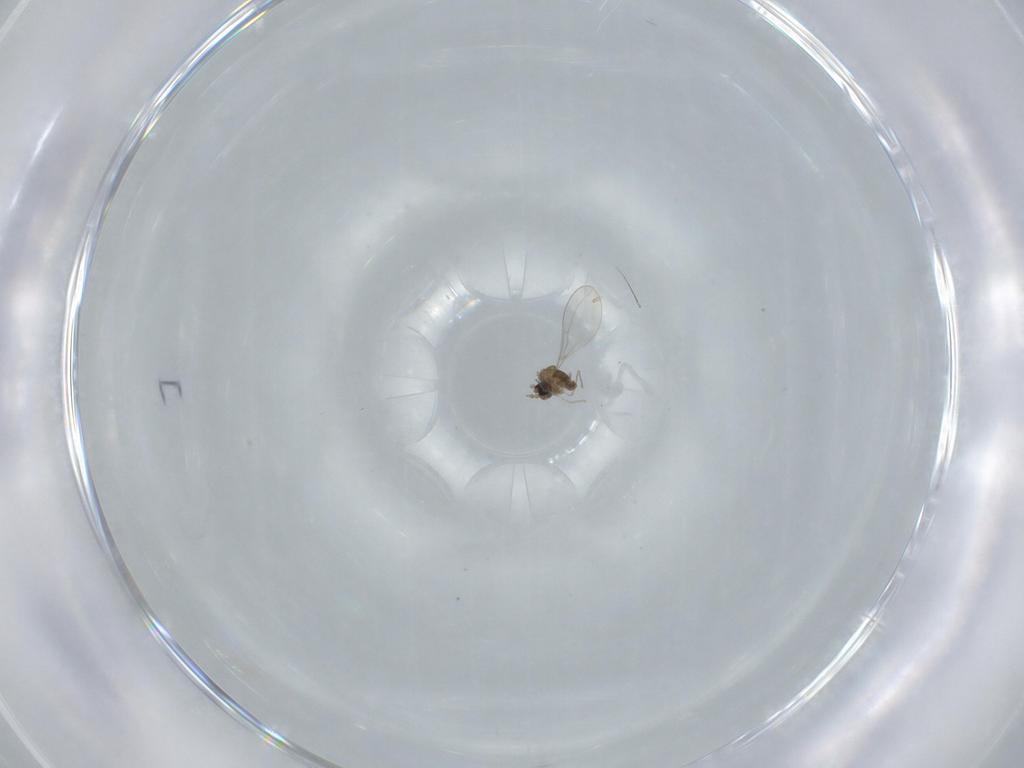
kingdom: Animalia
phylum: Arthropoda
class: Insecta
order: Diptera
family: Cecidomyiidae
